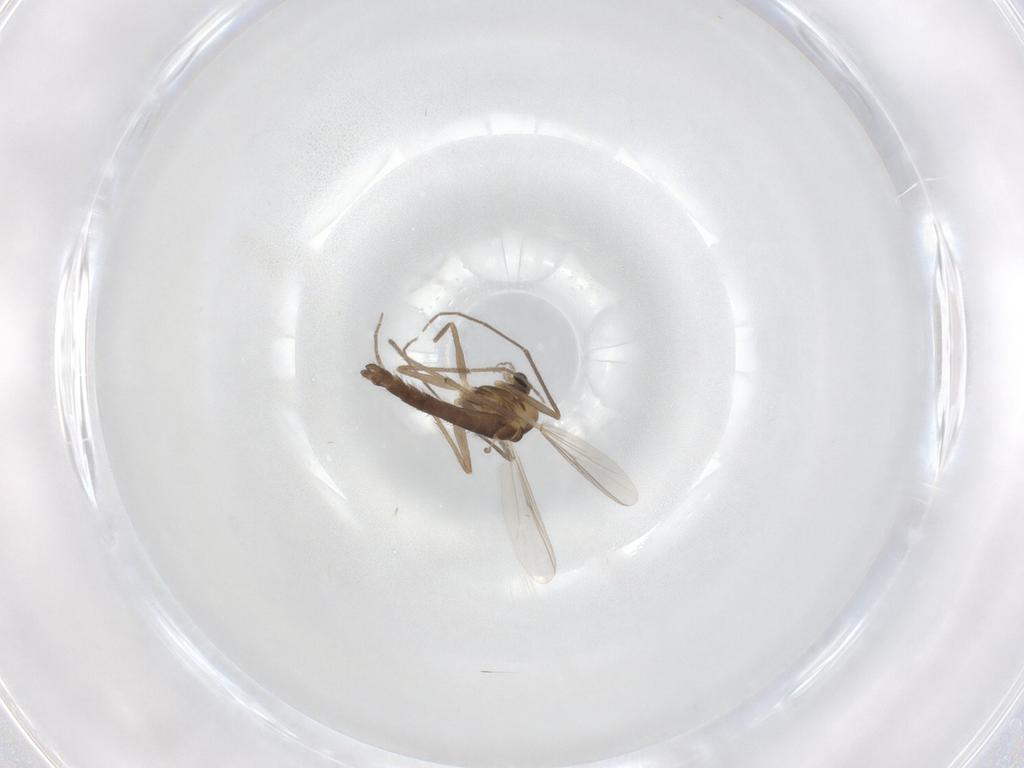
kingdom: Animalia
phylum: Arthropoda
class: Insecta
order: Diptera
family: Chironomidae
